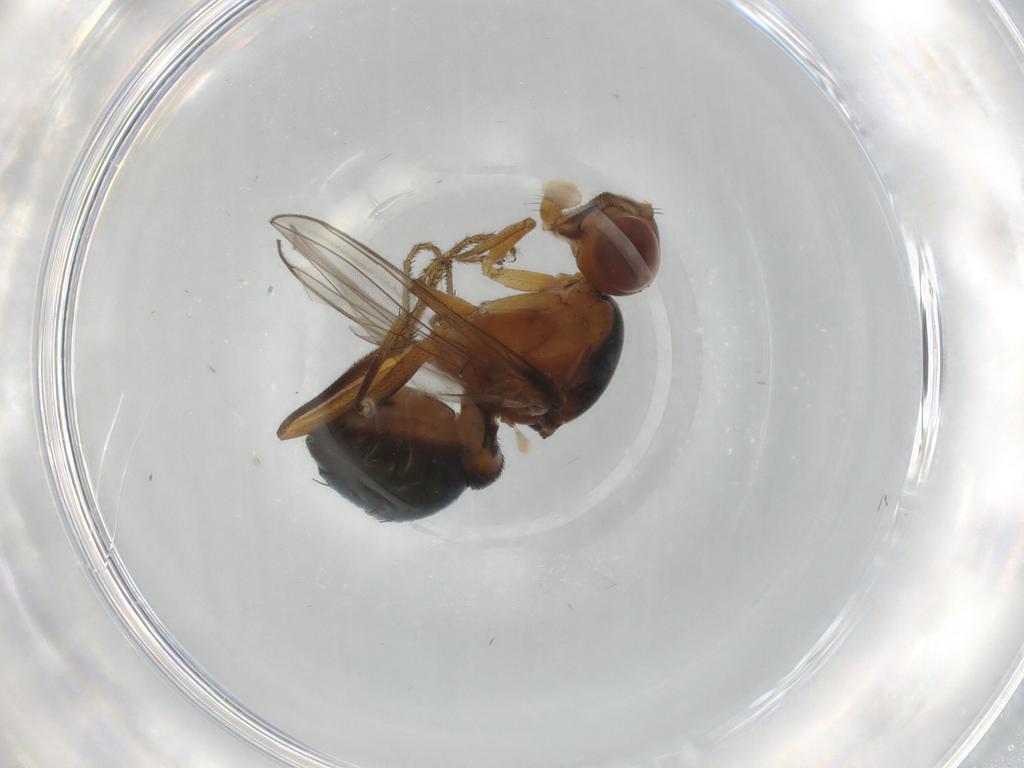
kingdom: Animalia
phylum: Arthropoda
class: Insecta
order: Diptera
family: Sepsidae
